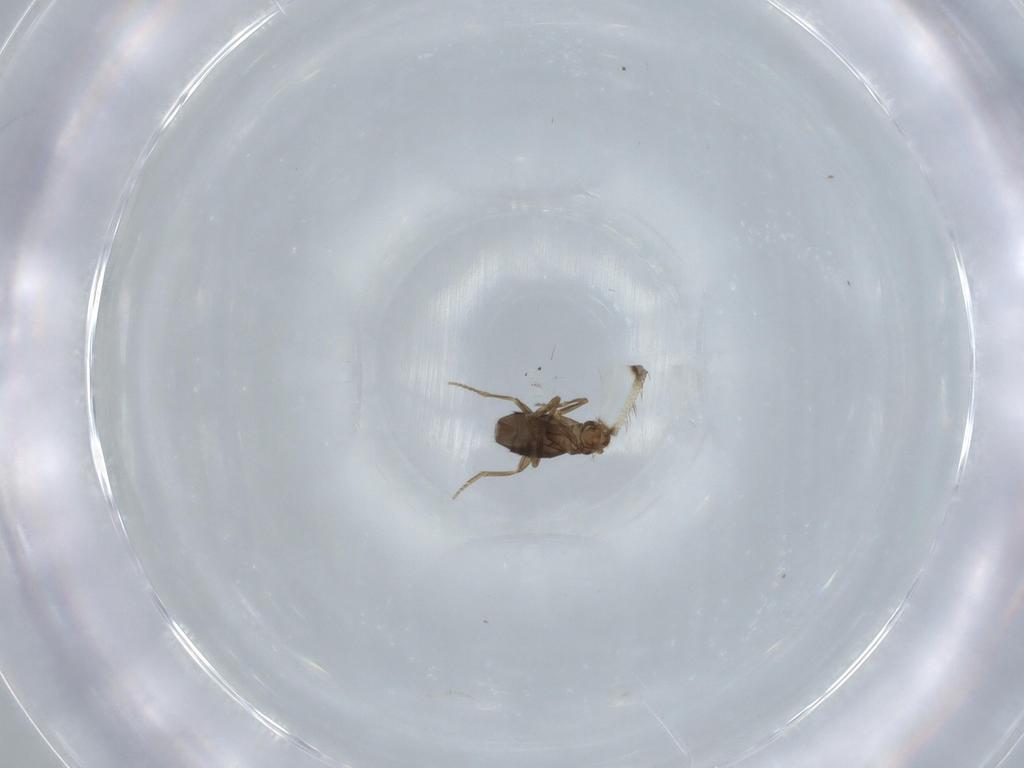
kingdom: Animalia
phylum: Arthropoda
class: Insecta
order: Psocodea
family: Ptiloneuridae
